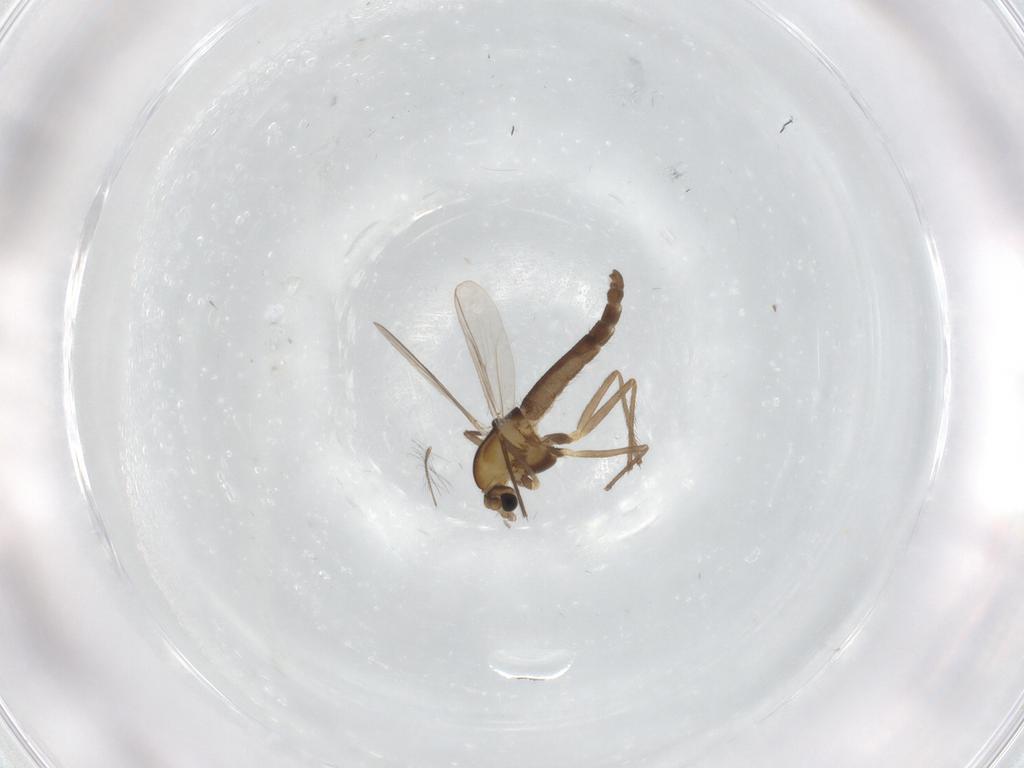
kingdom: Animalia
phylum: Arthropoda
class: Insecta
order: Diptera
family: Chironomidae
